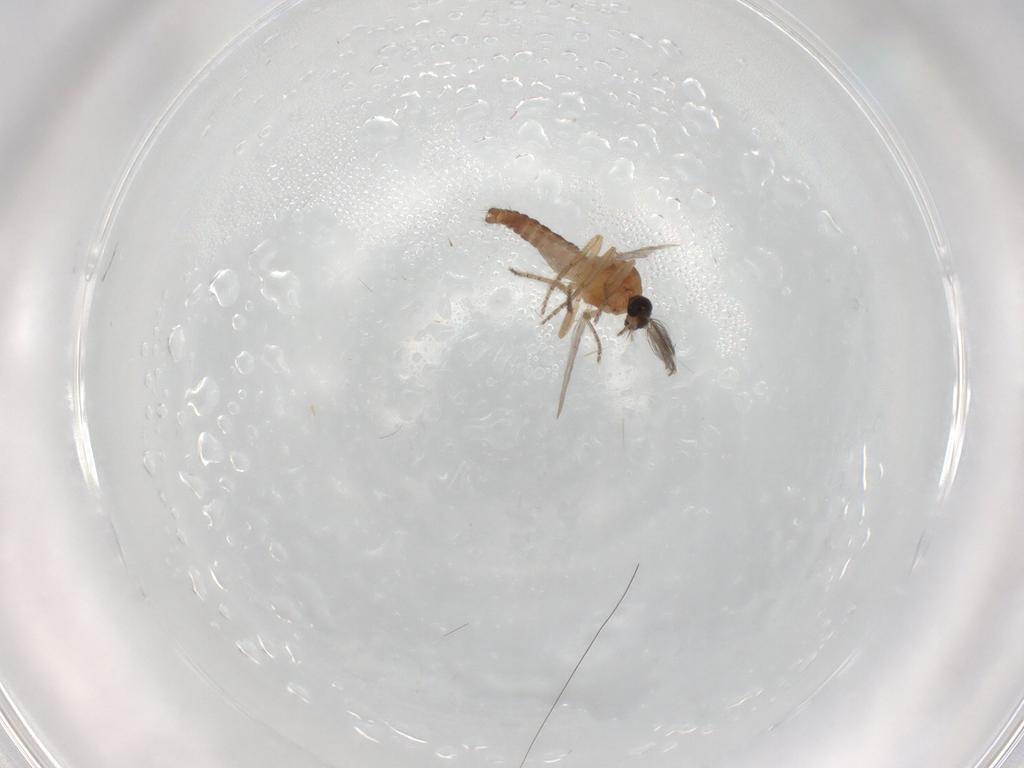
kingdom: Animalia
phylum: Arthropoda
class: Insecta
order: Diptera
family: Ceratopogonidae
